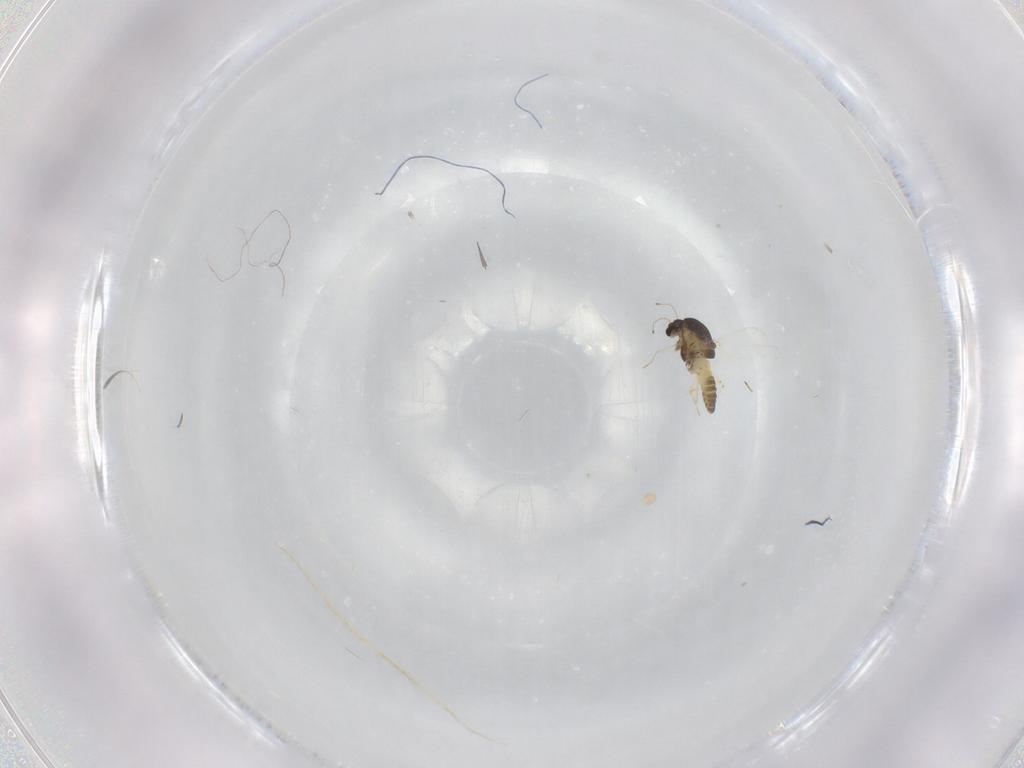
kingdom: Animalia
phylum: Arthropoda
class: Insecta
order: Diptera
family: Chironomidae
